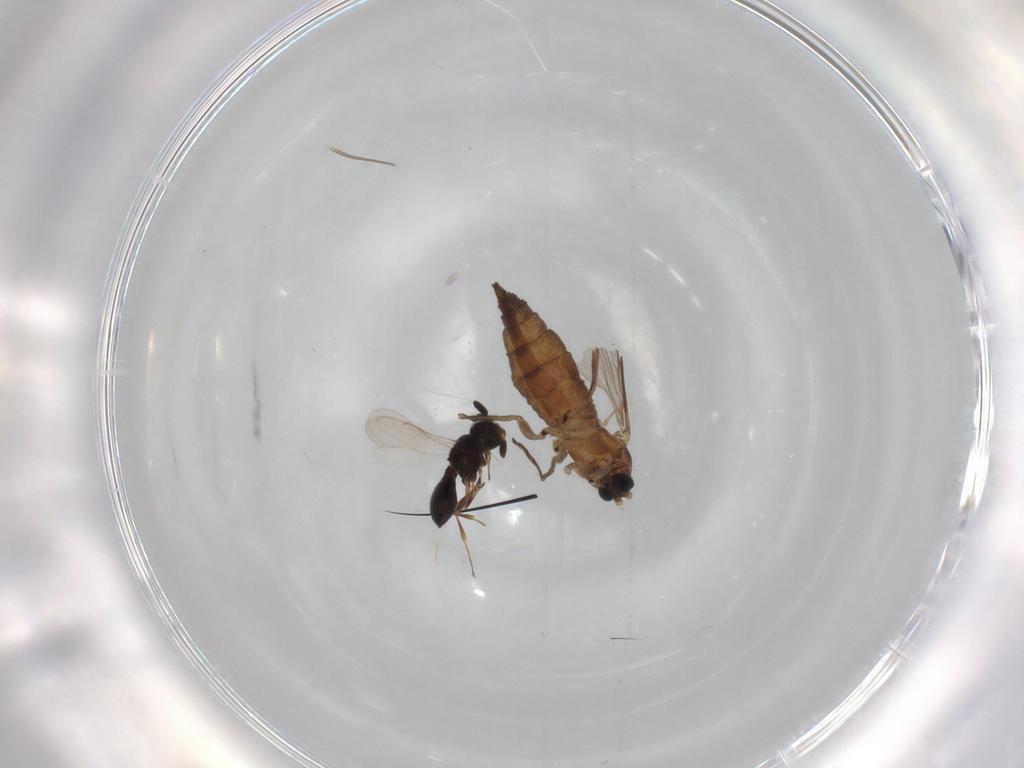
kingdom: Animalia
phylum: Arthropoda
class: Insecta
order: Diptera
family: Sciaridae
